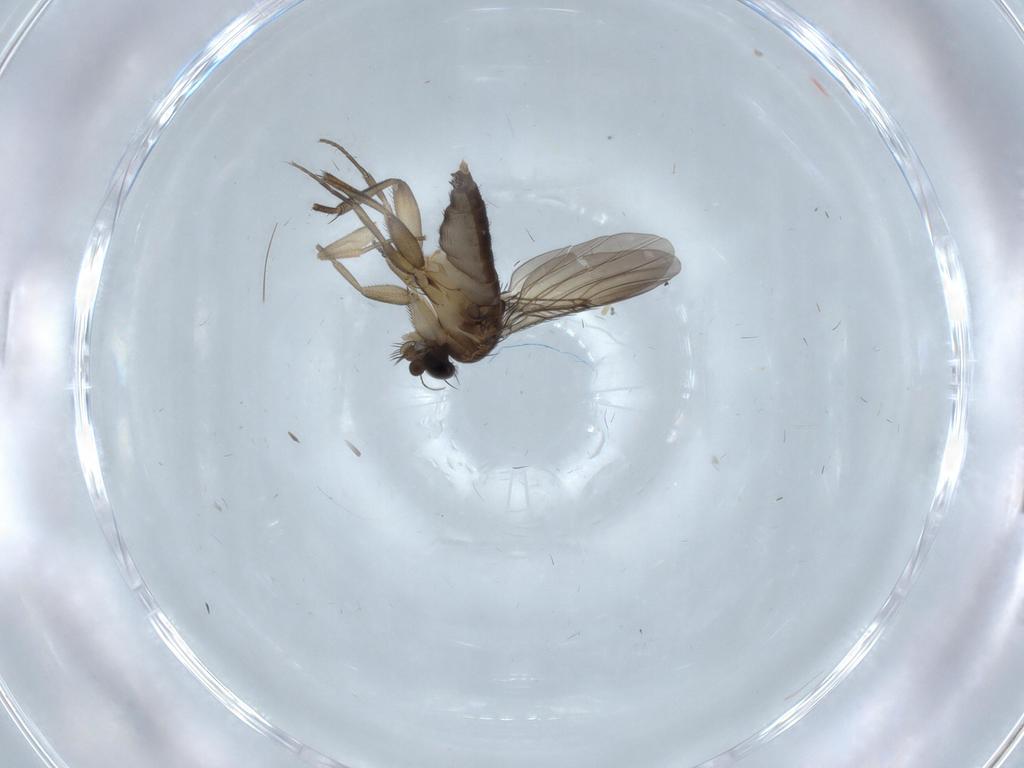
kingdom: Animalia
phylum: Arthropoda
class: Insecta
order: Diptera
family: Phoridae
